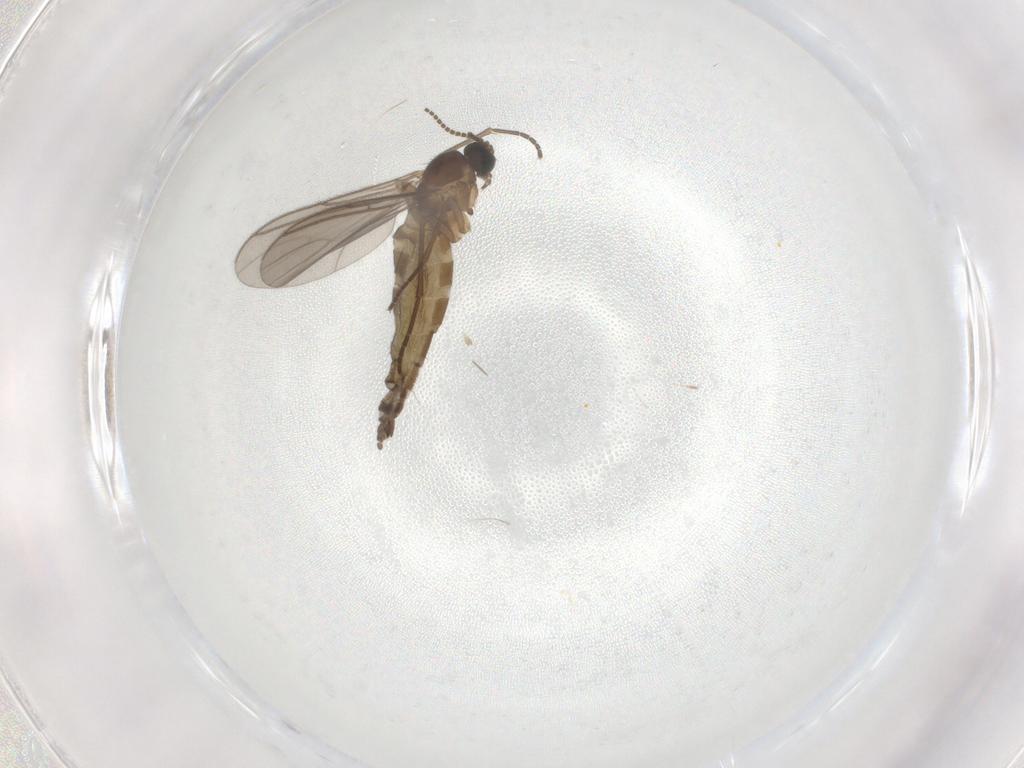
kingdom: Animalia
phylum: Arthropoda
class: Insecta
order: Diptera
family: Sciaridae
